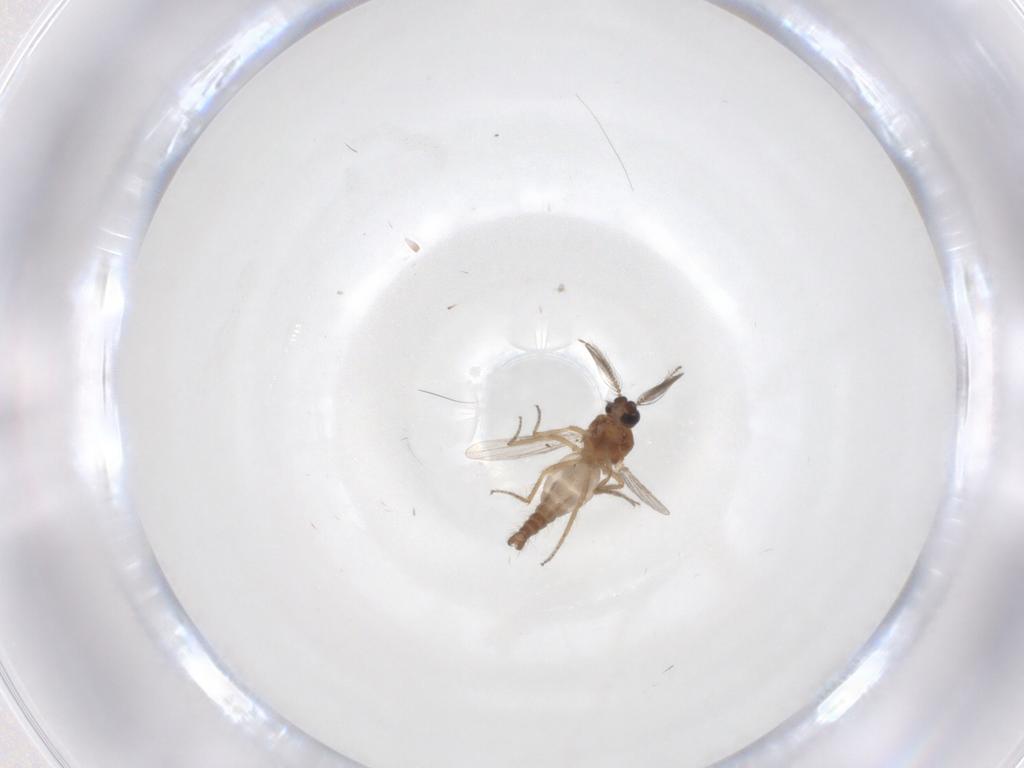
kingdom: Animalia
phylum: Arthropoda
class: Insecta
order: Diptera
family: Ceratopogonidae
